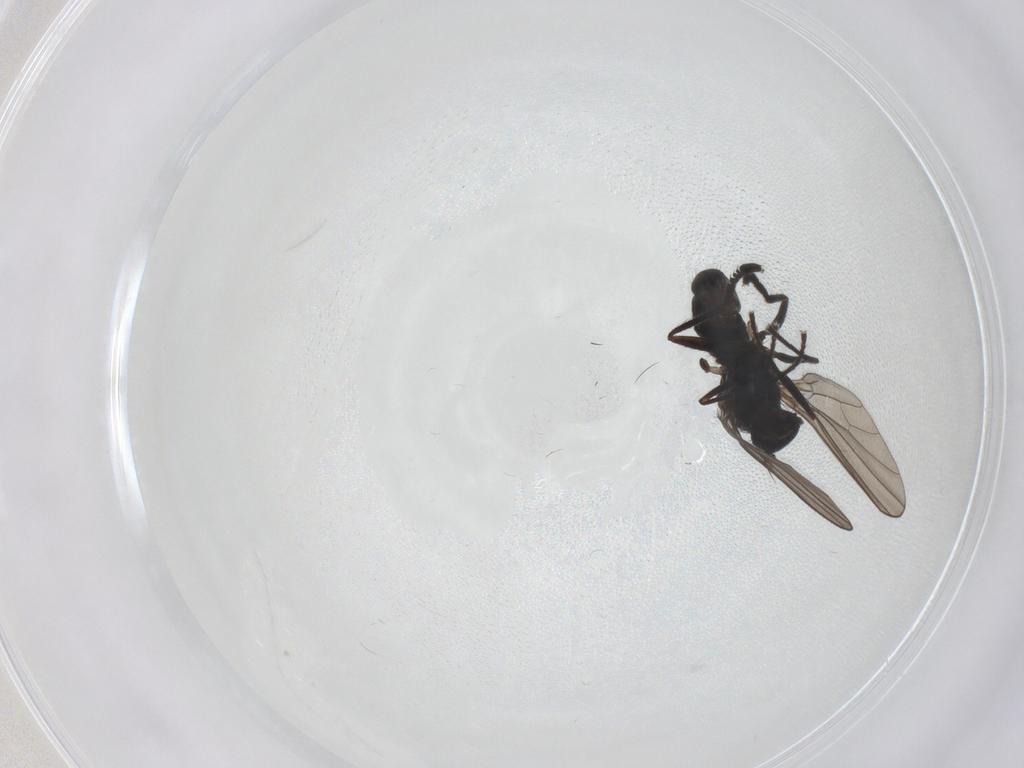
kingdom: Animalia
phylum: Arthropoda
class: Insecta
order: Diptera
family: Dolichopodidae
